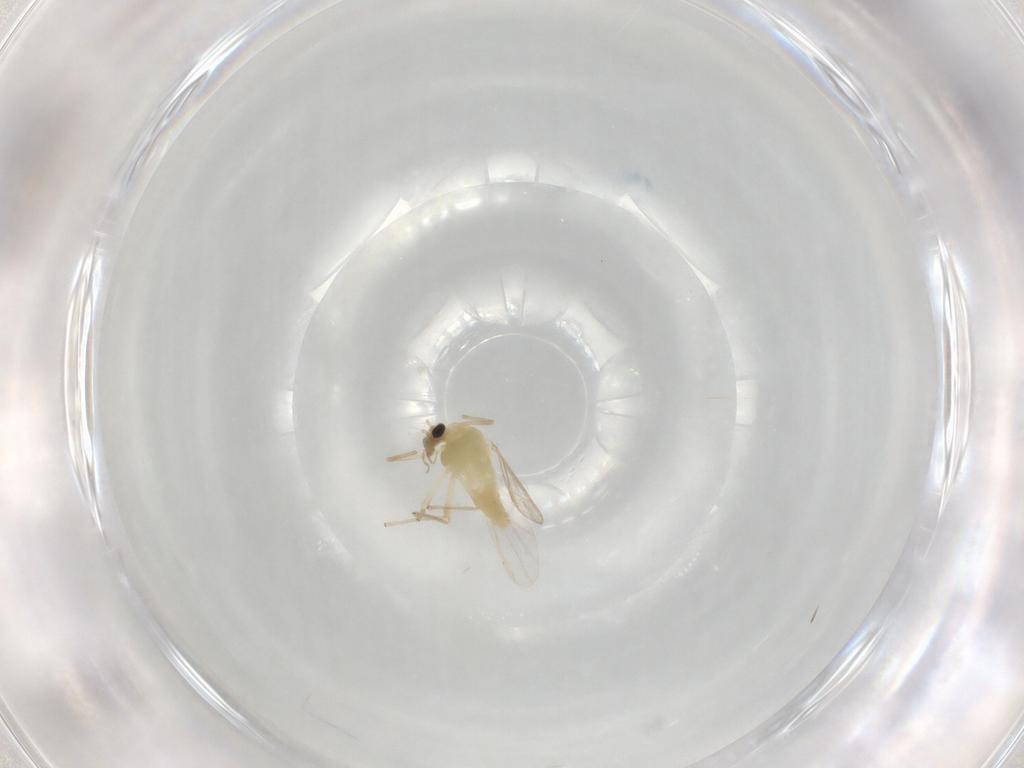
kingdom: Animalia
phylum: Arthropoda
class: Insecta
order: Diptera
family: Chironomidae
